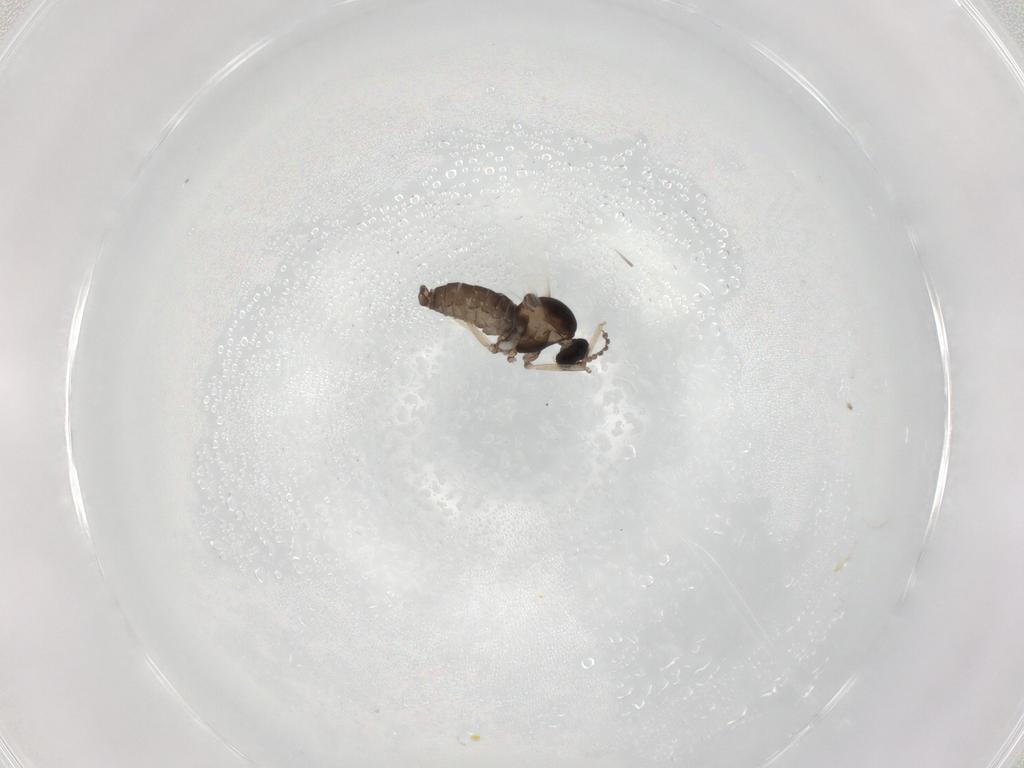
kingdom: Animalia
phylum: Arthropoda
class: Insecta
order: Diptera
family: Cecidomyiidae
